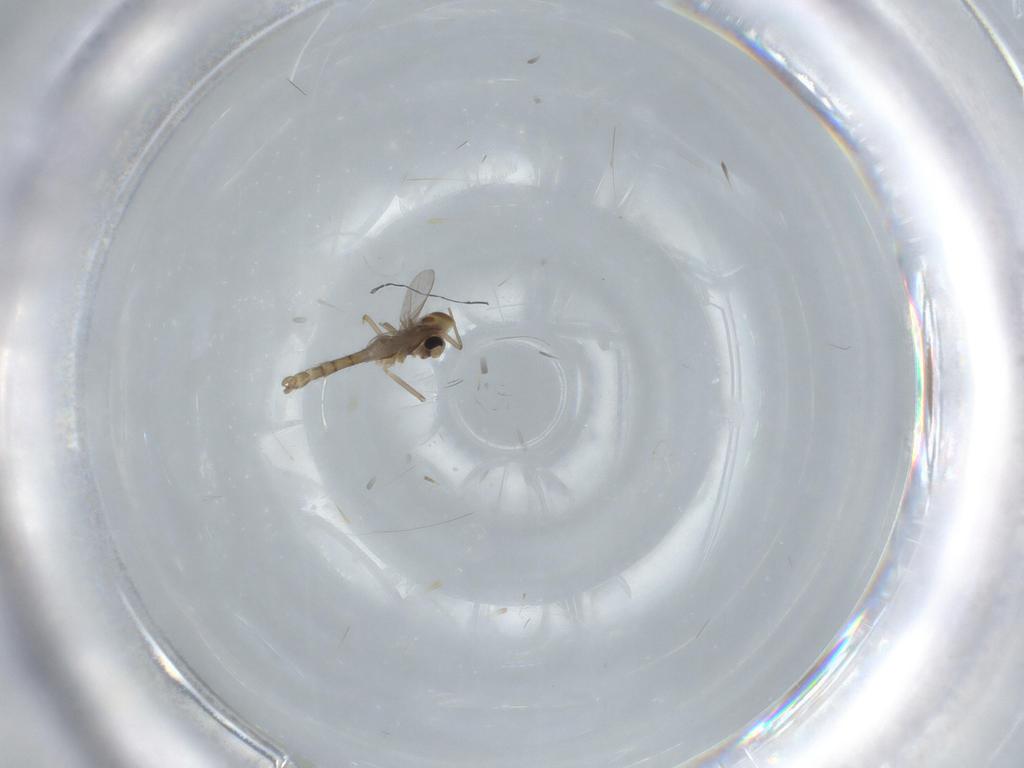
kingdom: Animalia
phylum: Arthropoda
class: Insecta
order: Diptera
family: Chironomidae
